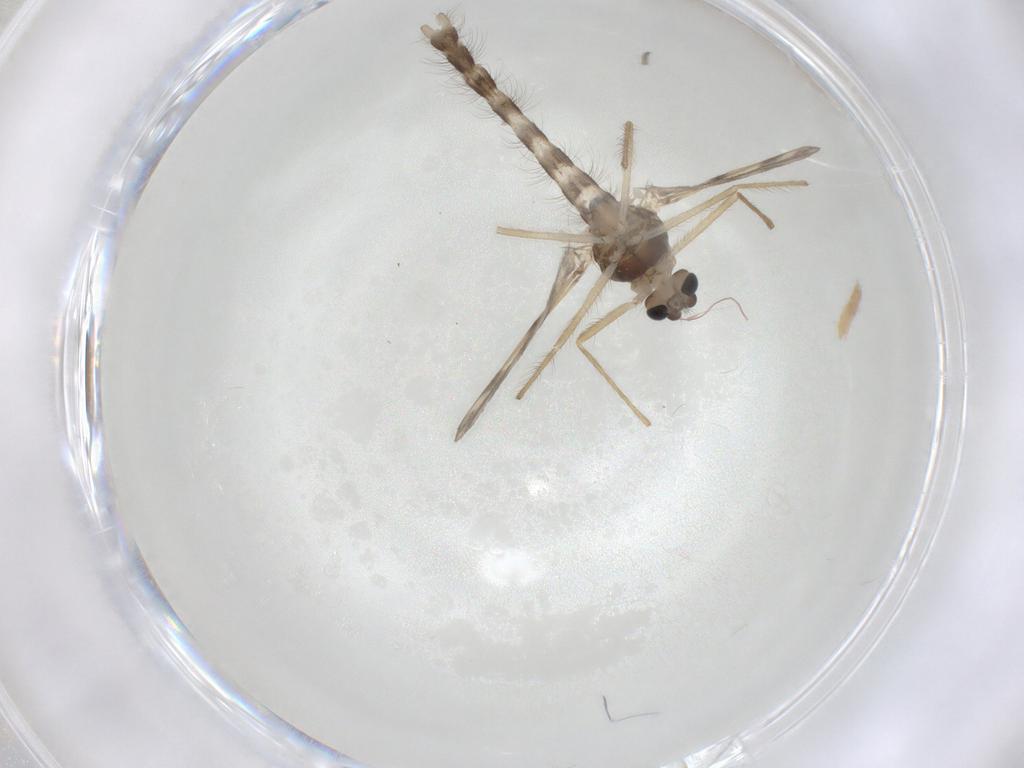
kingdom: Animalia
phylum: Arthropoda
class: Insecta
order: Diptera
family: Chironomidae
